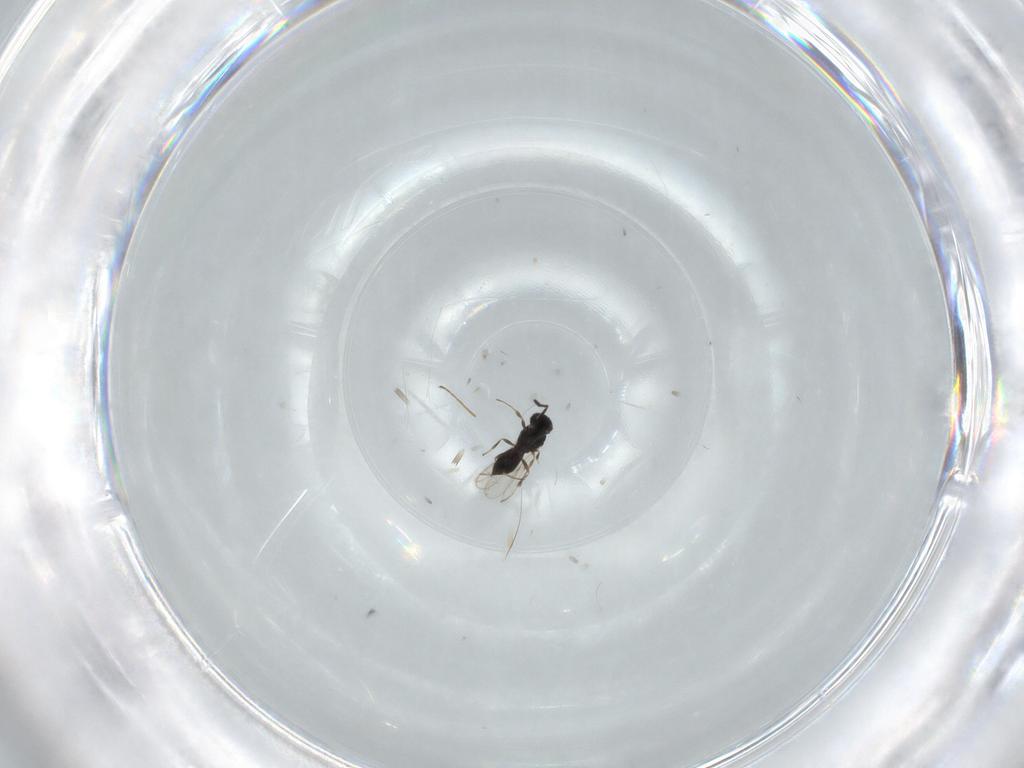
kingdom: Animalia
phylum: Arthropoda
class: Insecta
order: Hymenoptera
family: Scelionidae
